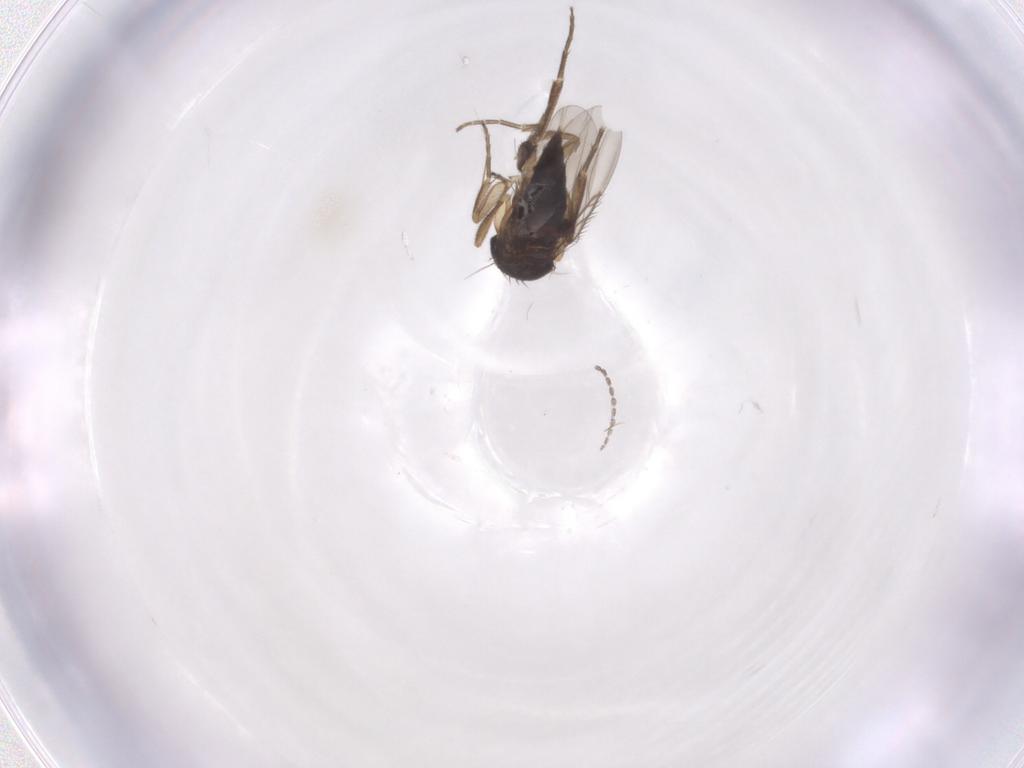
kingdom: Animalia
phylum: Arthropoda
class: Insecta
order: Diptera
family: Phoridae
